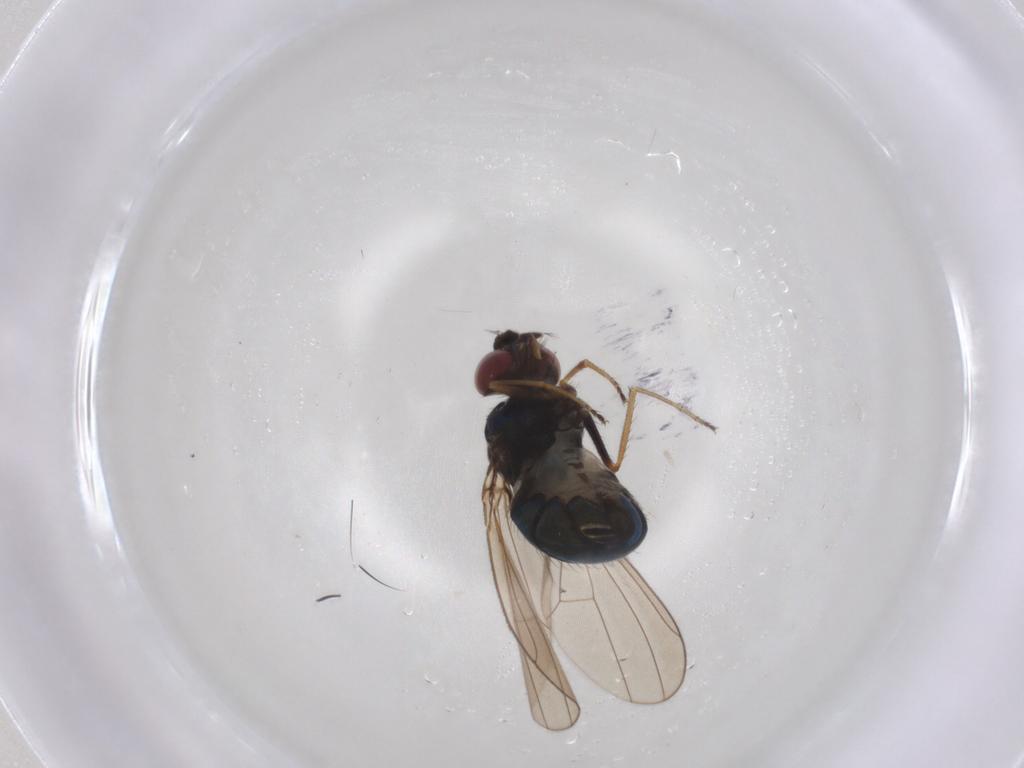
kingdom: Animalia
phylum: Arthropoda
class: Insecta
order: Diptera
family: Ephydridae
